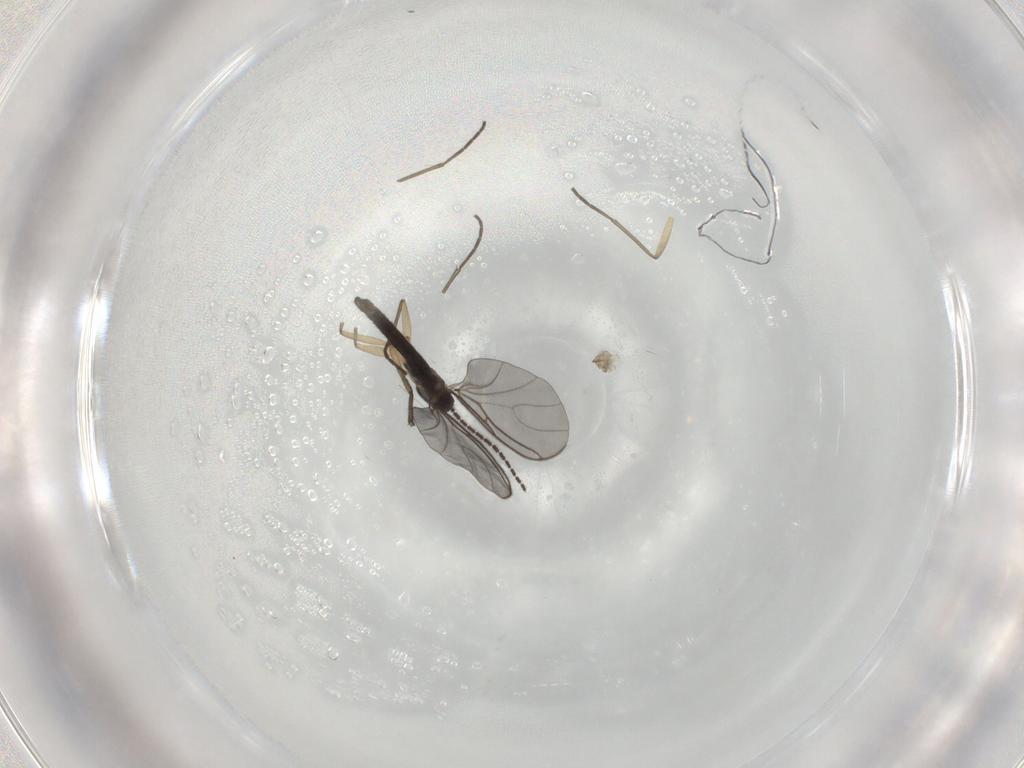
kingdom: Animalia
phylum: Arthropoda
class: Insecta
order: Diptera
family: Sciaridae
